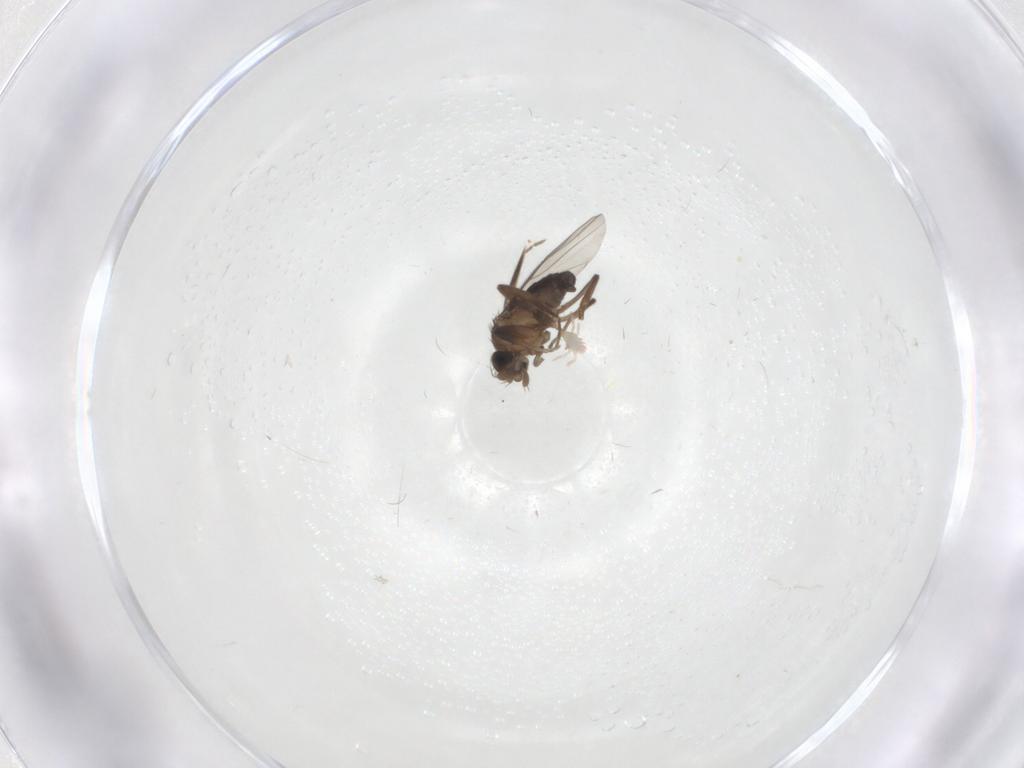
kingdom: Animalia
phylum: Arthropoda
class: Insecta
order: Diptera
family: Phoridae
